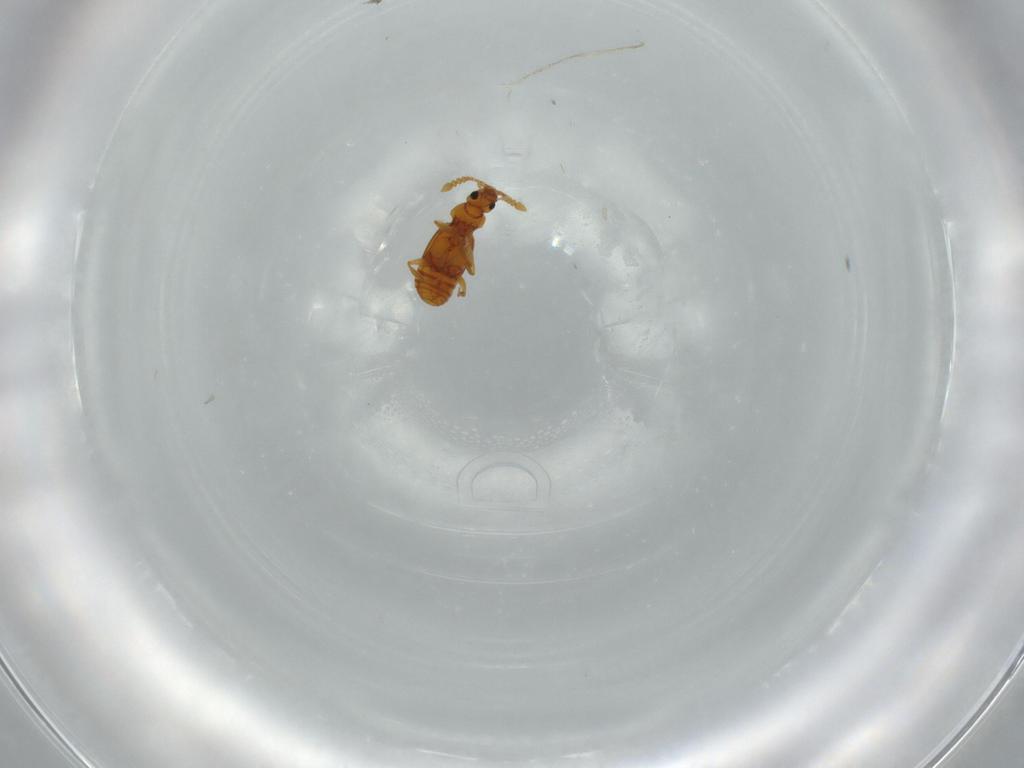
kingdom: Animalia
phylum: Arthropoda
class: Insecta
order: Coleoptera
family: Staphylinidae
